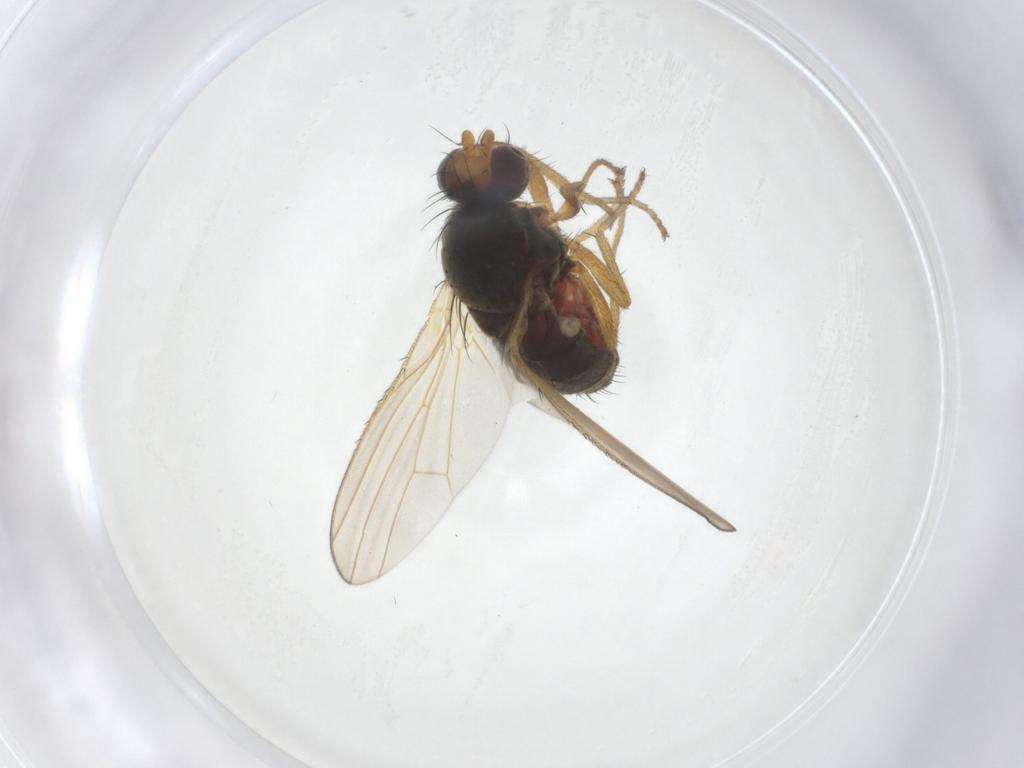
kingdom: Animalia
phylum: Arthropoda
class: Insecta
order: Diptera
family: Heleomyzidae
